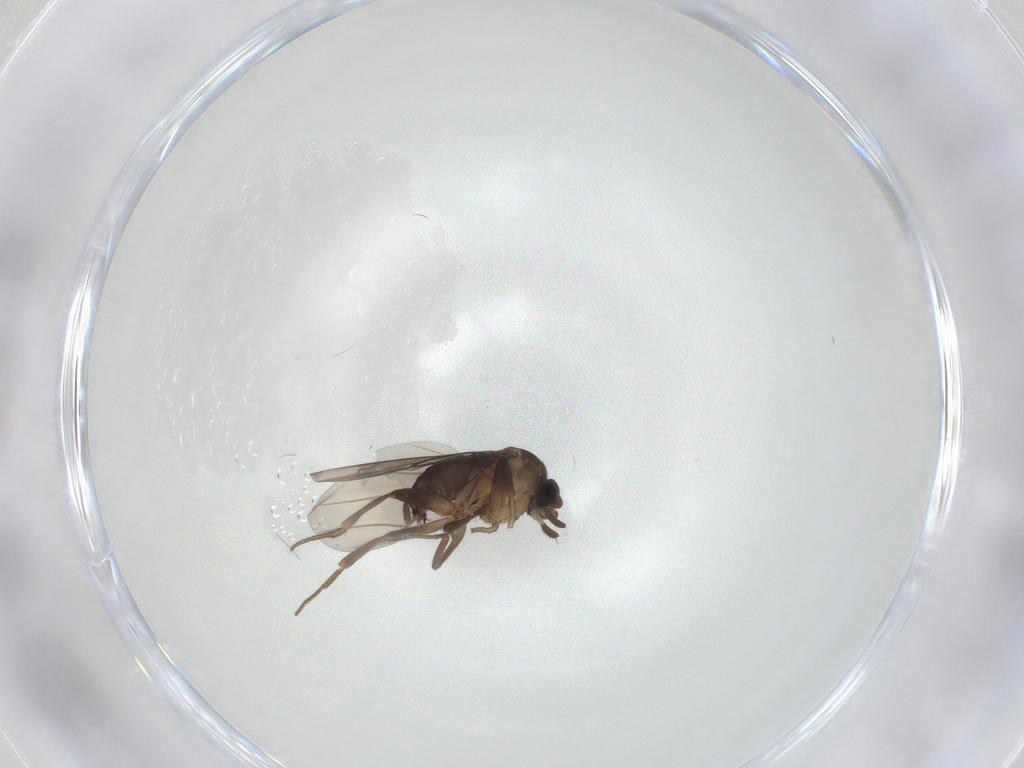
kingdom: Animalia
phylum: Arthropoda
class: Insecta
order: Diptera
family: Phoridae
